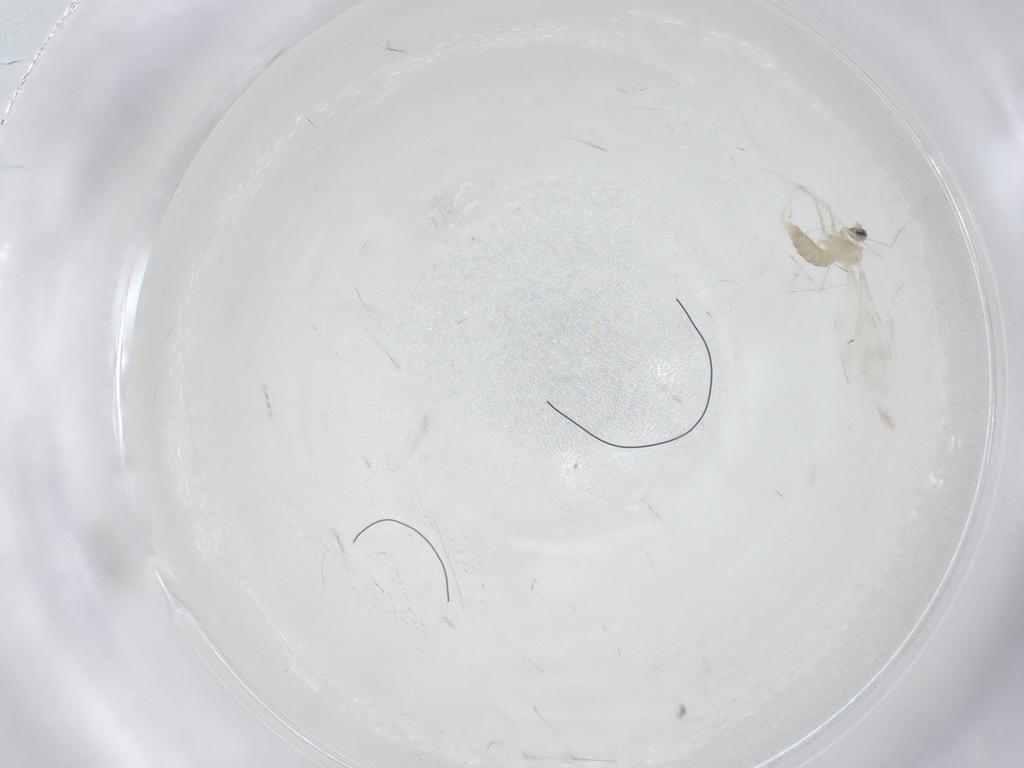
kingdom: Animalia
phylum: Arthropoda
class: Insecta
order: Diptera
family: Cecidomyiidae
